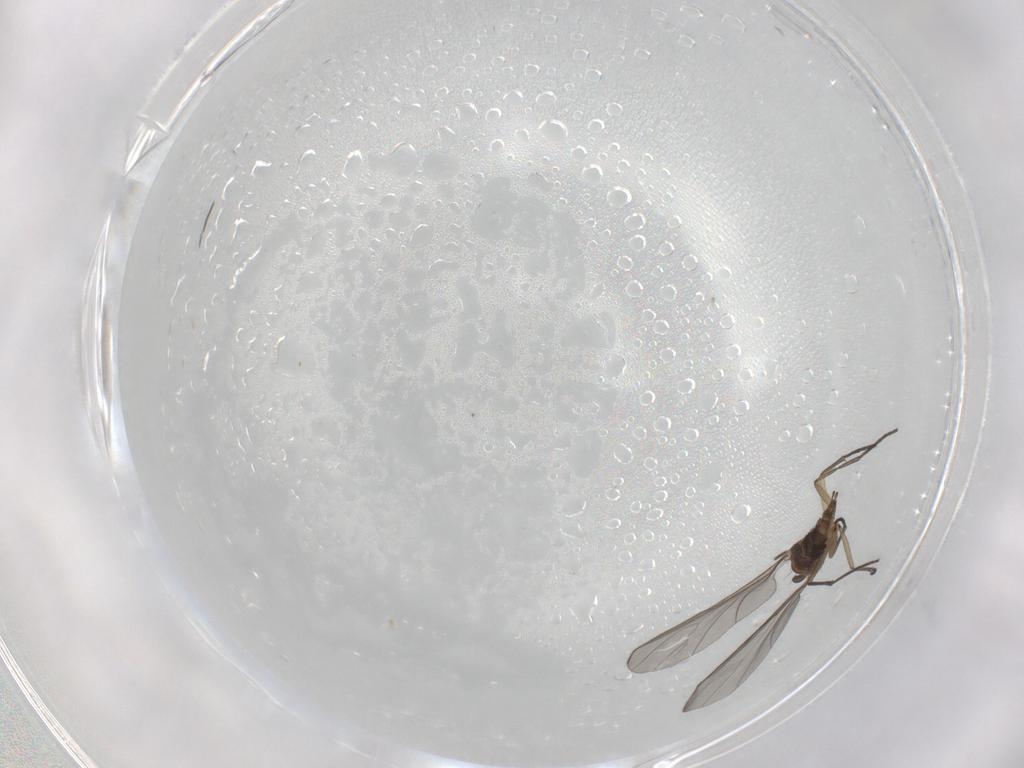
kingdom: Animalia
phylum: Arthropoda
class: Insecta
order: Diptera
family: Sciaridae
